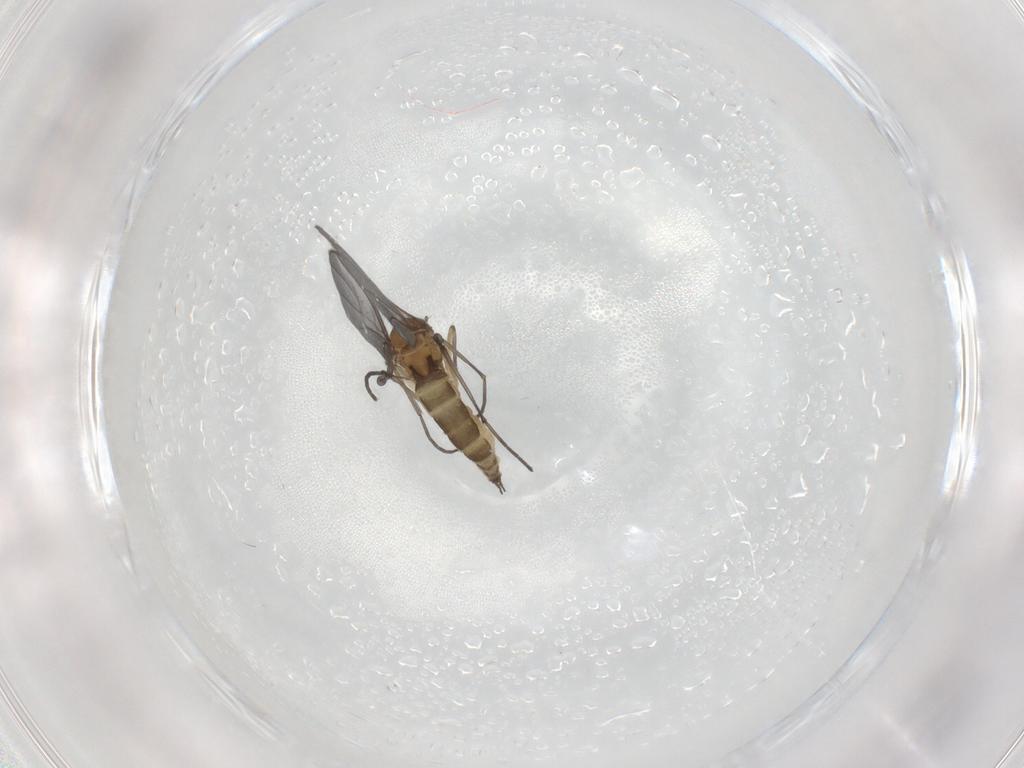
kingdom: Animalia
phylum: Arthropoda
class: Insecta
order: Diptera
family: Sciaridae
